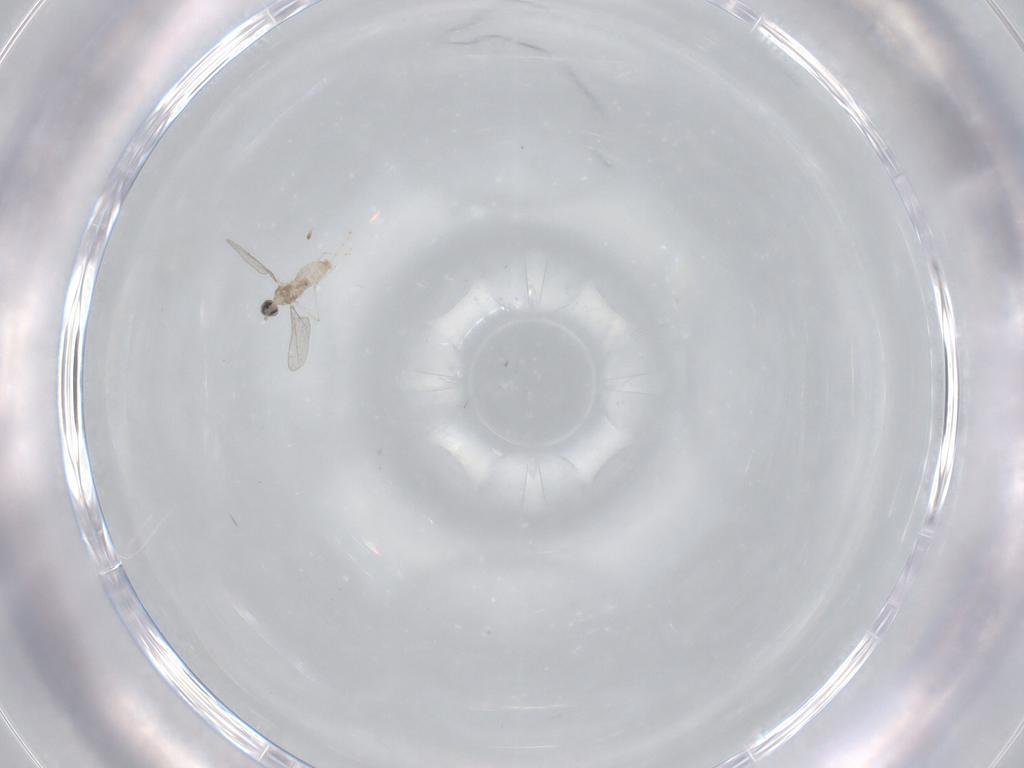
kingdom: Animalia
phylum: Arthropoda
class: Insecta
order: Diptera
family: Cecidomyiidae
